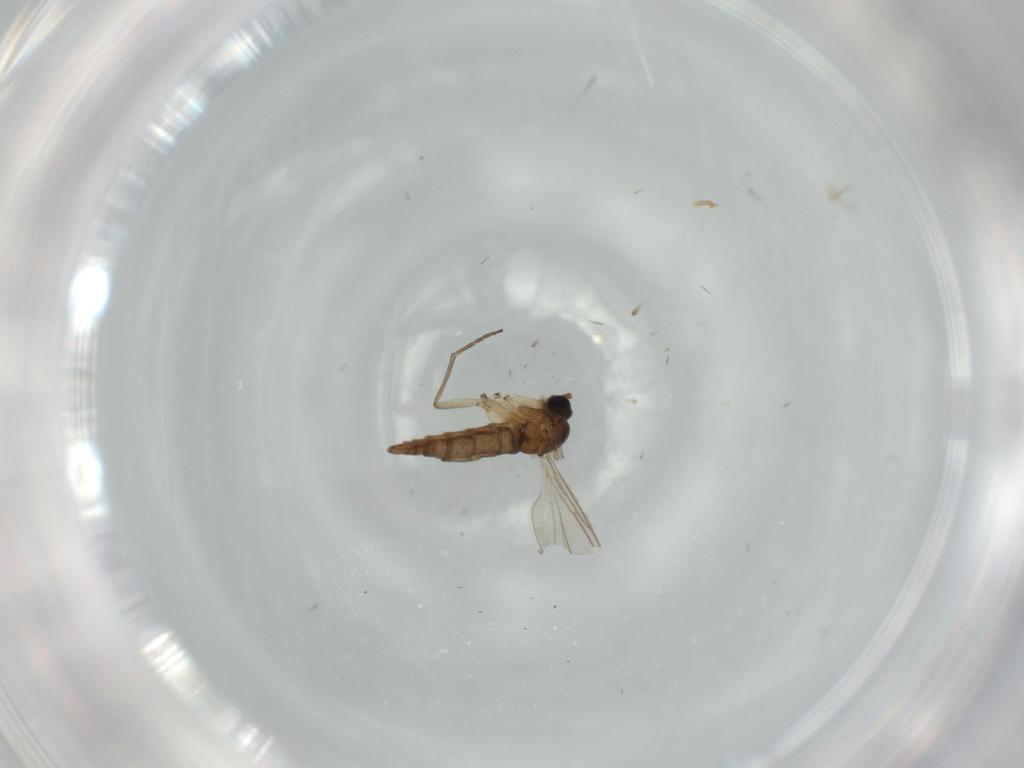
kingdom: Animalia
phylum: Arthropoda
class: Insecta
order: Diptera
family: Sciaridae
